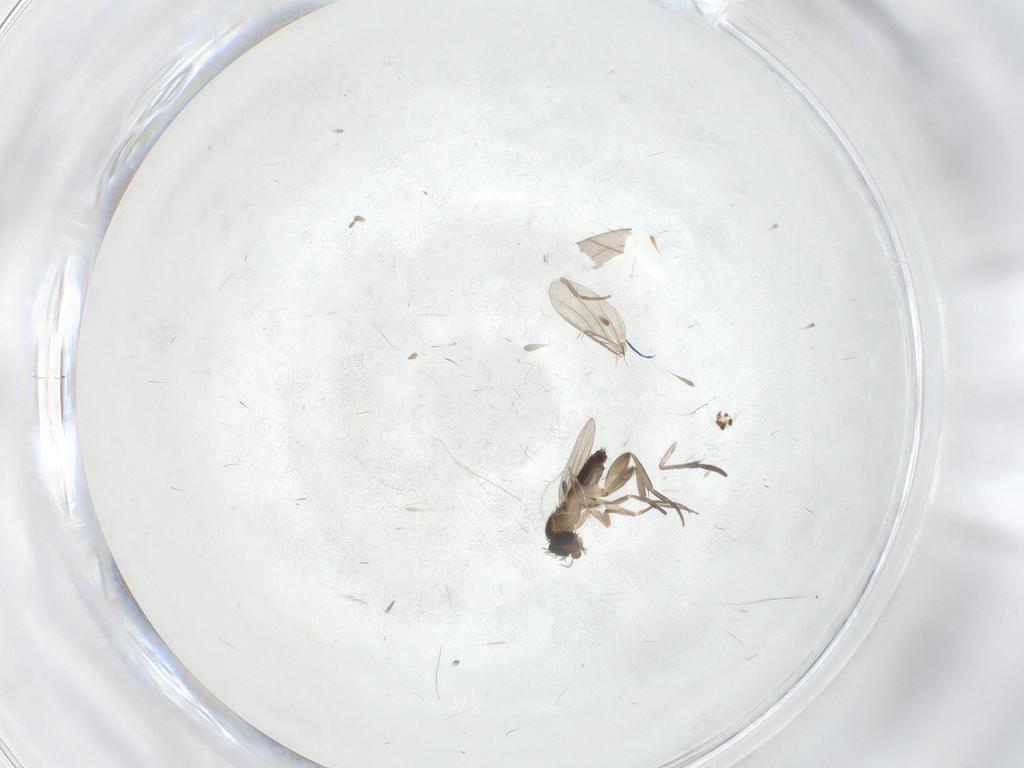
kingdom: Animalia
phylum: Arthropoda
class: Insecta
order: Diptera
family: Phoridae
